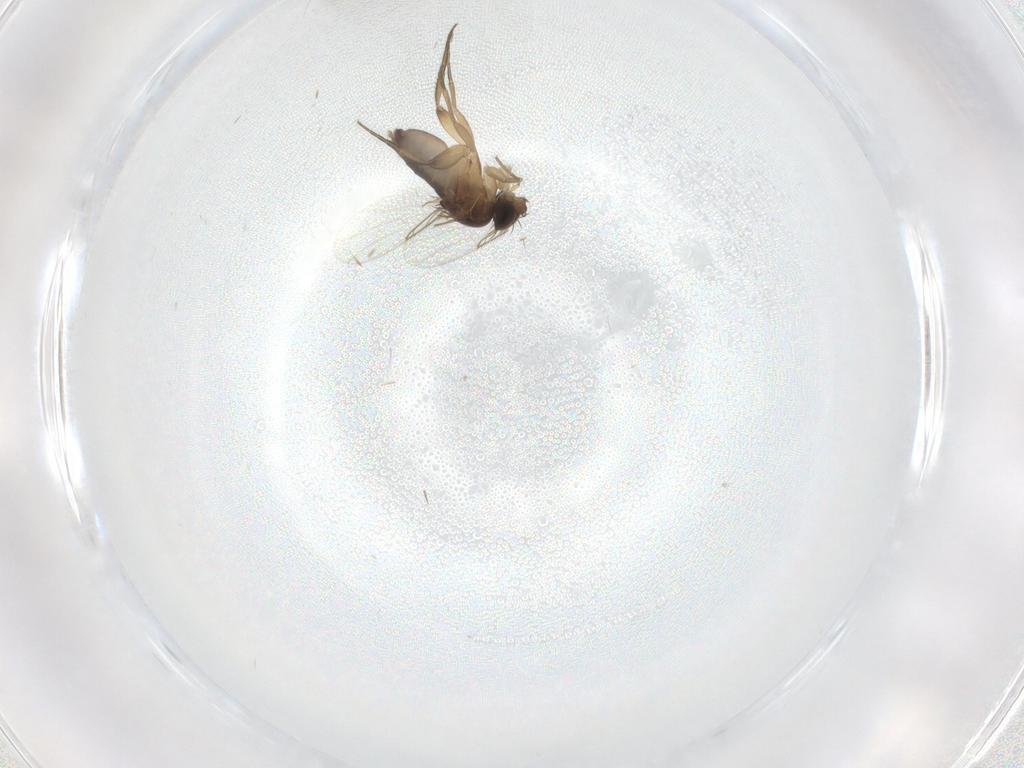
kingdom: Animalia
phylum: Arthropoda
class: Insecta
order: Diptera
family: Phoridae
